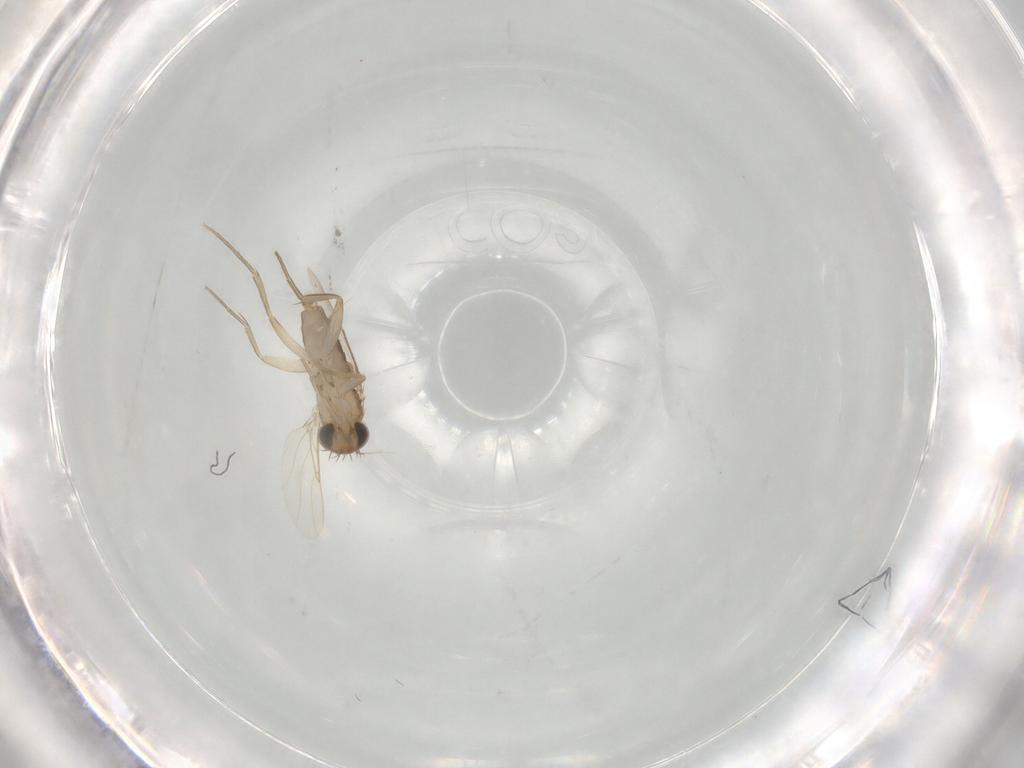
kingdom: Animalia
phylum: Arthropoda
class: Insecta
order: Diptera
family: Phoridae
